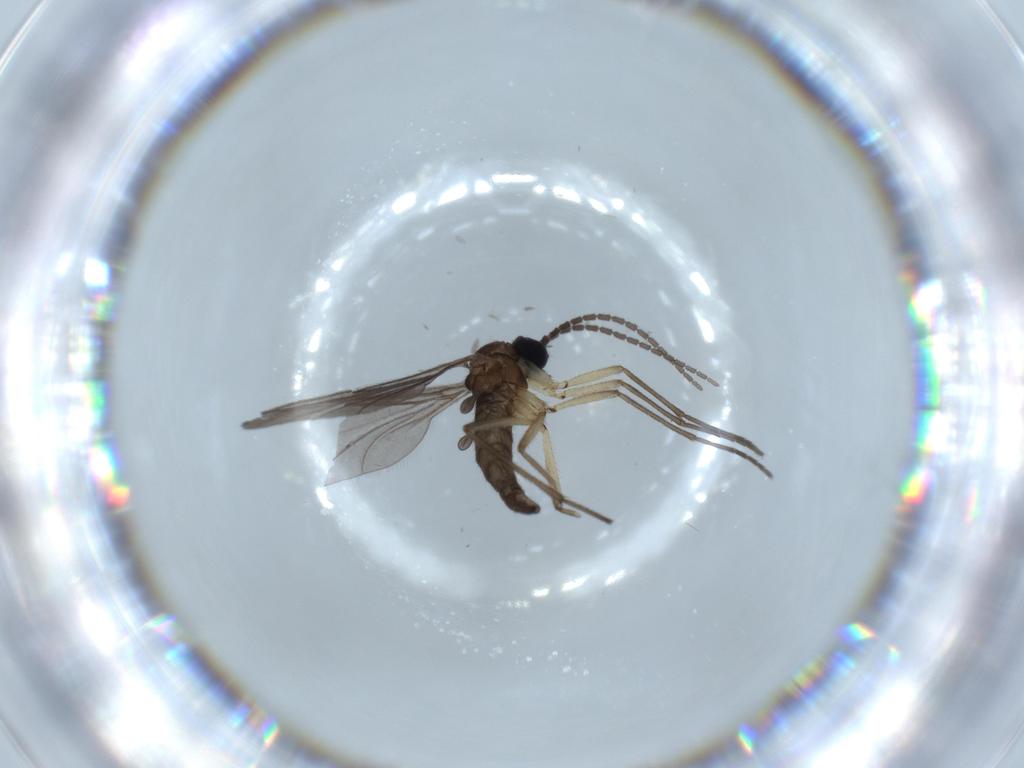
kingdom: Animalia
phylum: Arthropoda
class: Insecta
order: Diptera
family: Sciaridae
